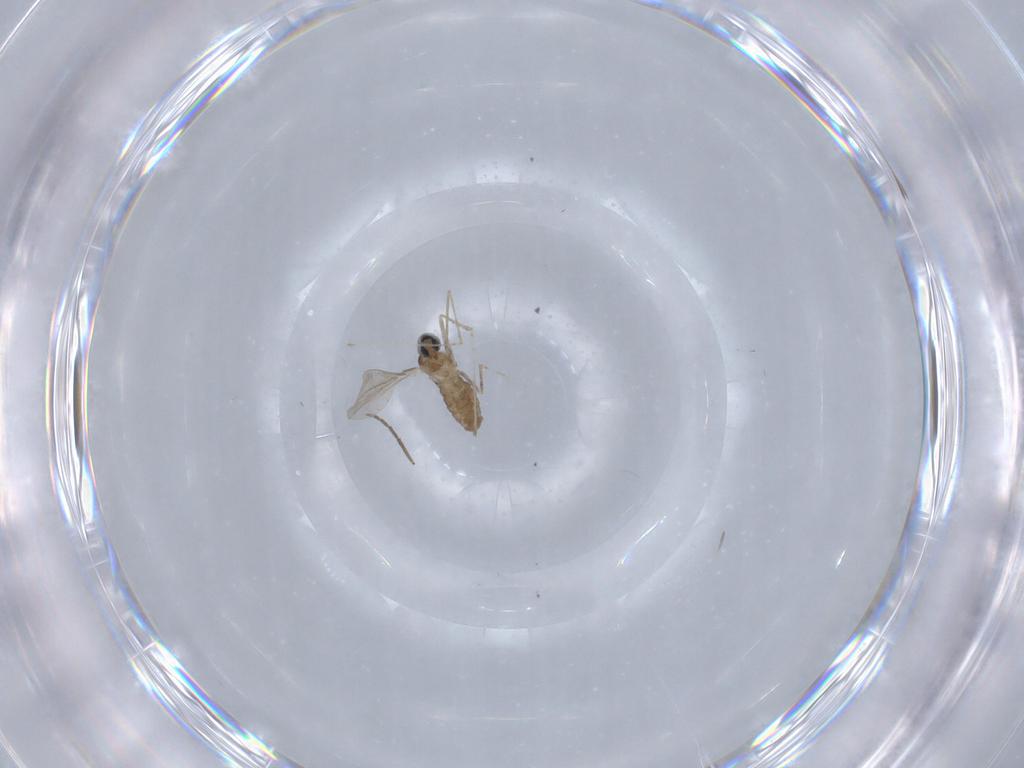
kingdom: Animalia
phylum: Arthropoda
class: Insecta
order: Diptera
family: Cecidomyiidae
